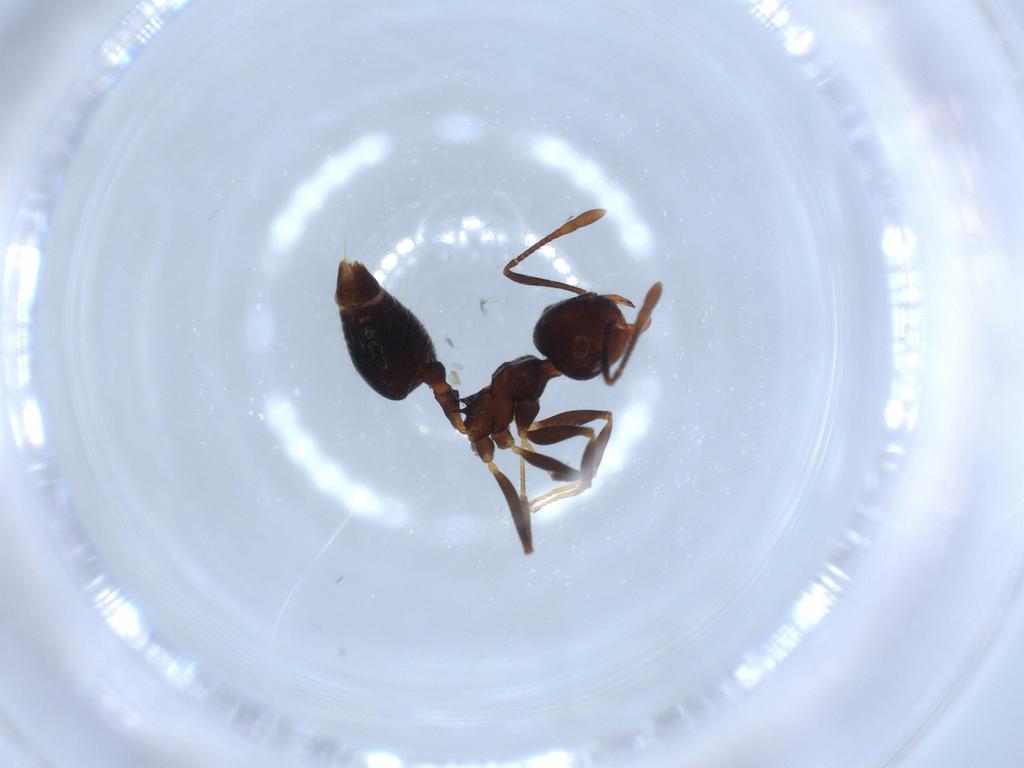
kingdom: Animalia
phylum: Arthropoda
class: Insecta
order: Hymenoptera
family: Formicidae
